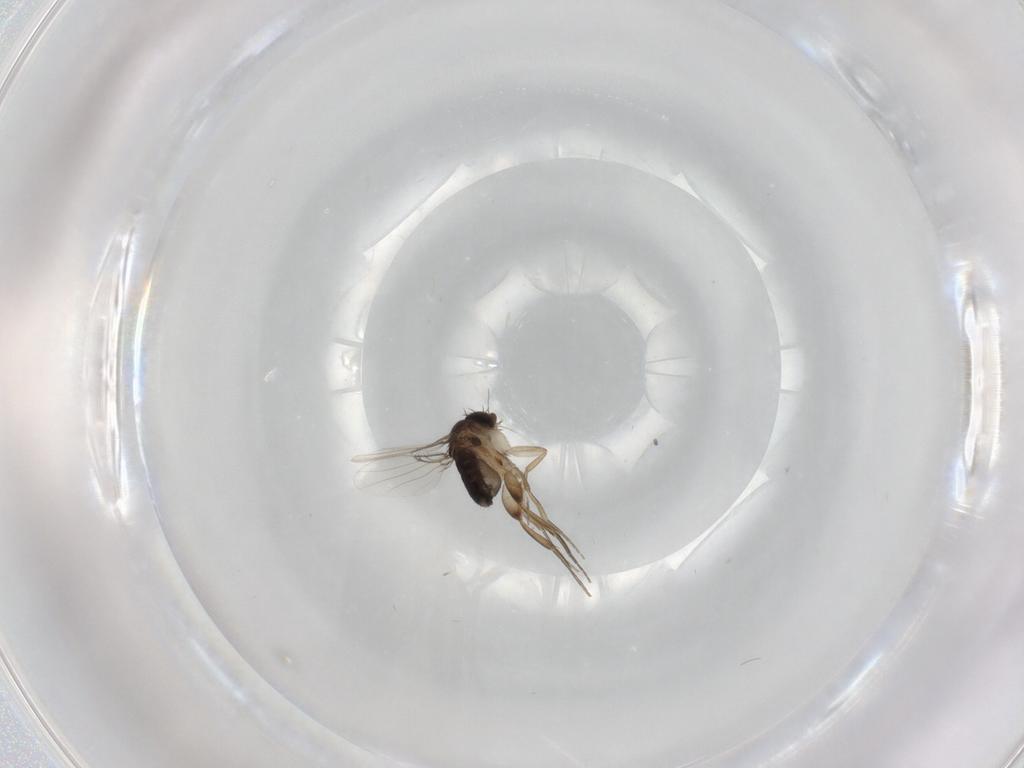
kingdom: Animalia
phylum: Arthropoda
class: Insecta
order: Diptera
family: Phoridae
